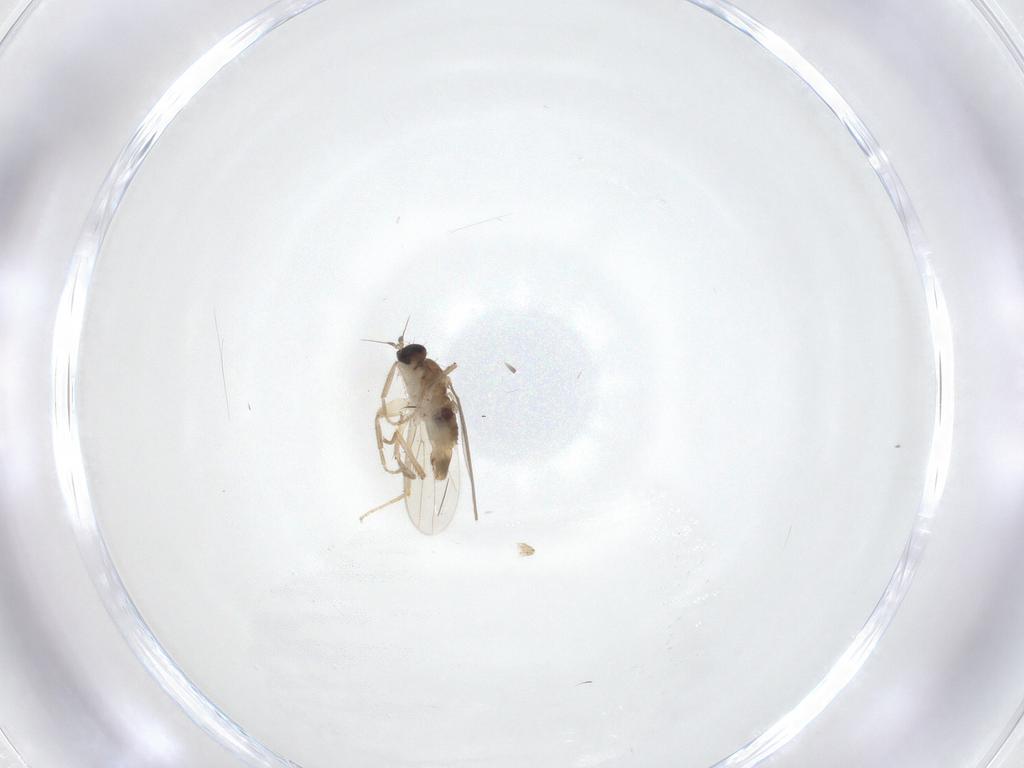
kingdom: Animalia
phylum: Arthropoda
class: Insecta
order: Diptera
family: Hybotidae
